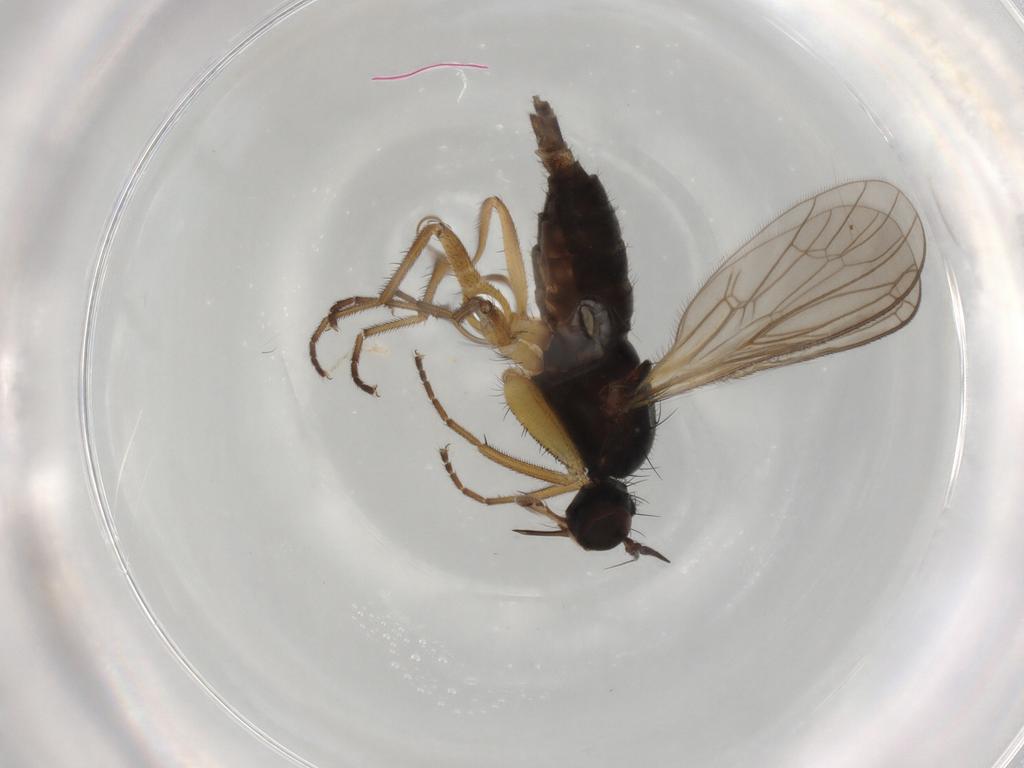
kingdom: Animalia
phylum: Arthropoda
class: Insecta
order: Diptera
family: Chironomidae
